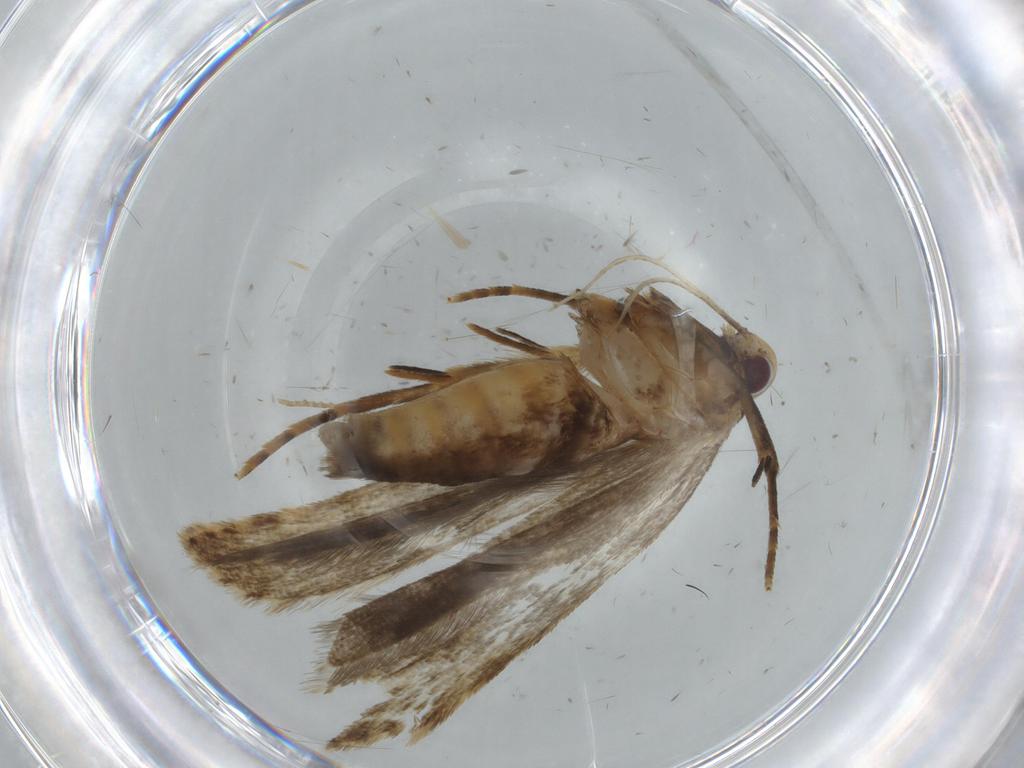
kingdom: Animalia
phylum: Arthropoda
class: Insecta
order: Lepidoptera
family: Gelechiidae
